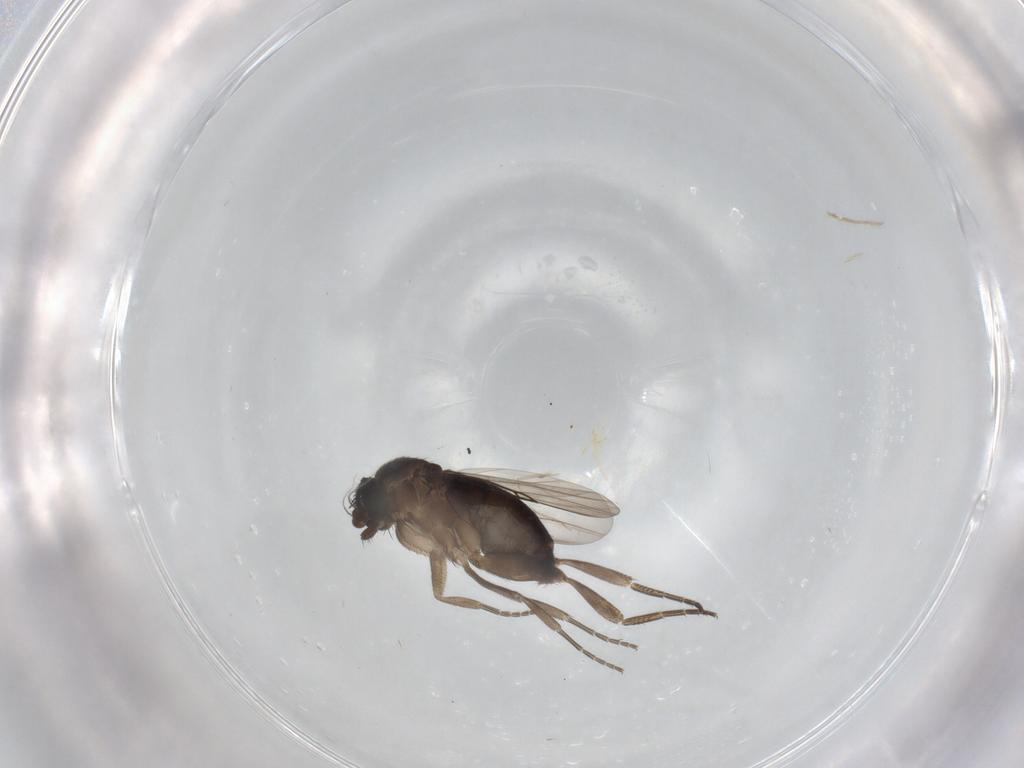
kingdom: Animalia
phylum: Arthropoda
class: Insecta
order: Diptera
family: Phoridae
